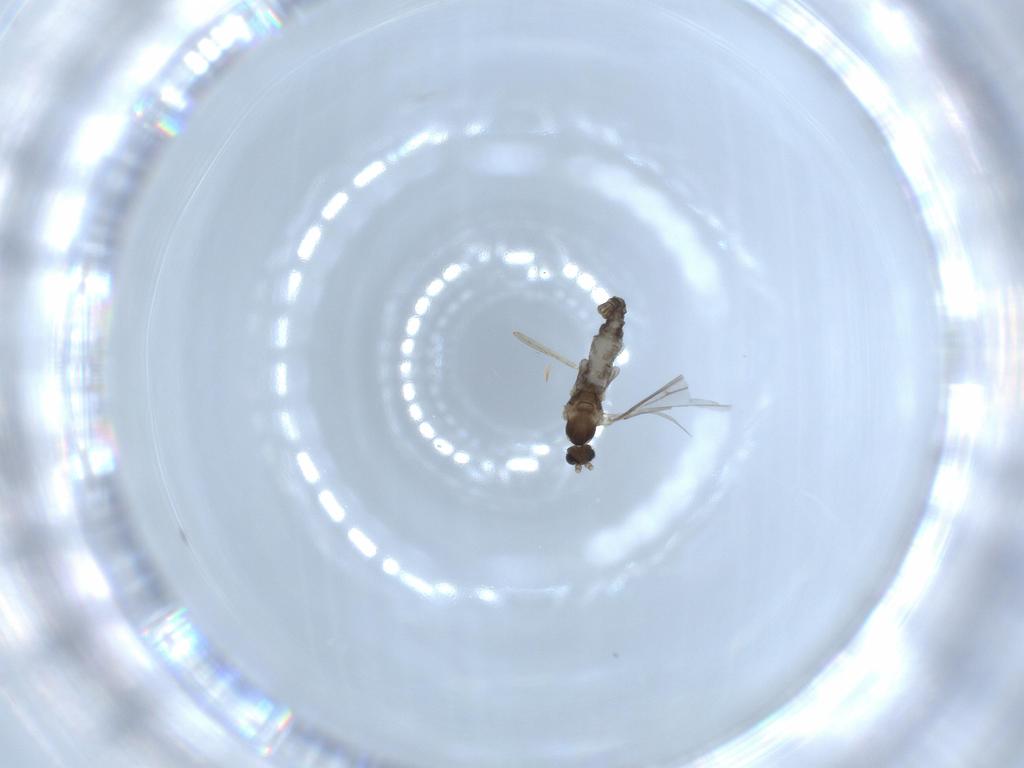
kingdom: Animalia
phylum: Arthropoda
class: Insecta
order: Diptera
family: Cecidomyiidae
